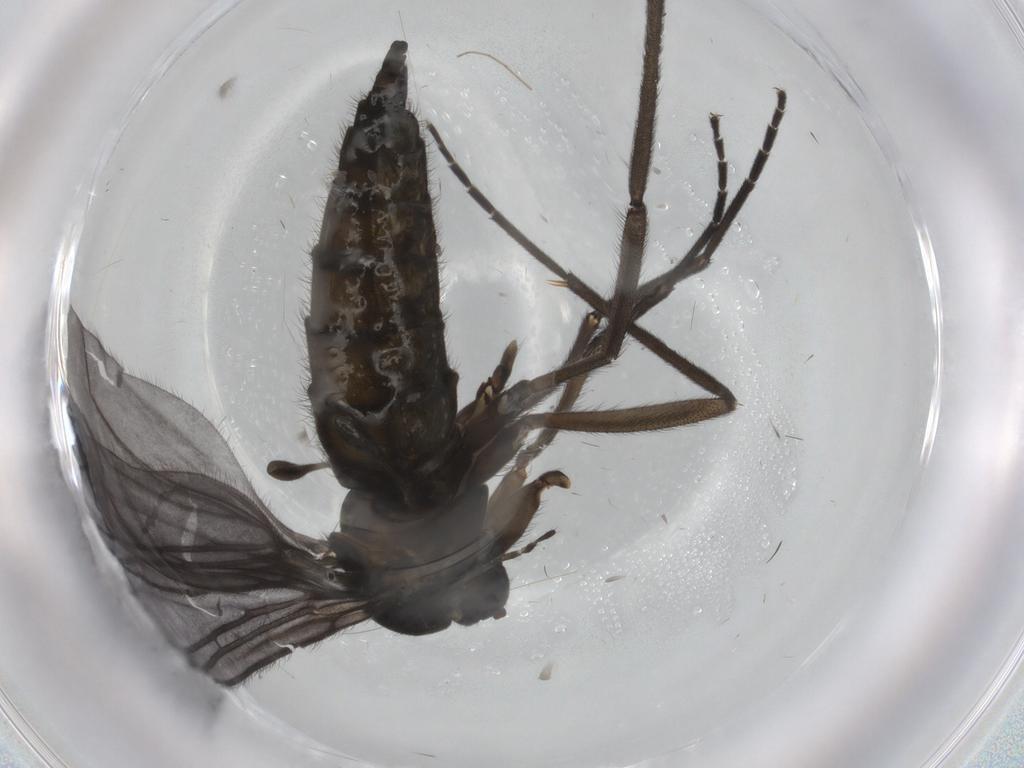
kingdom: Animalia
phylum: Arthropoda
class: Insecta
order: Diptera
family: Sciaridae
